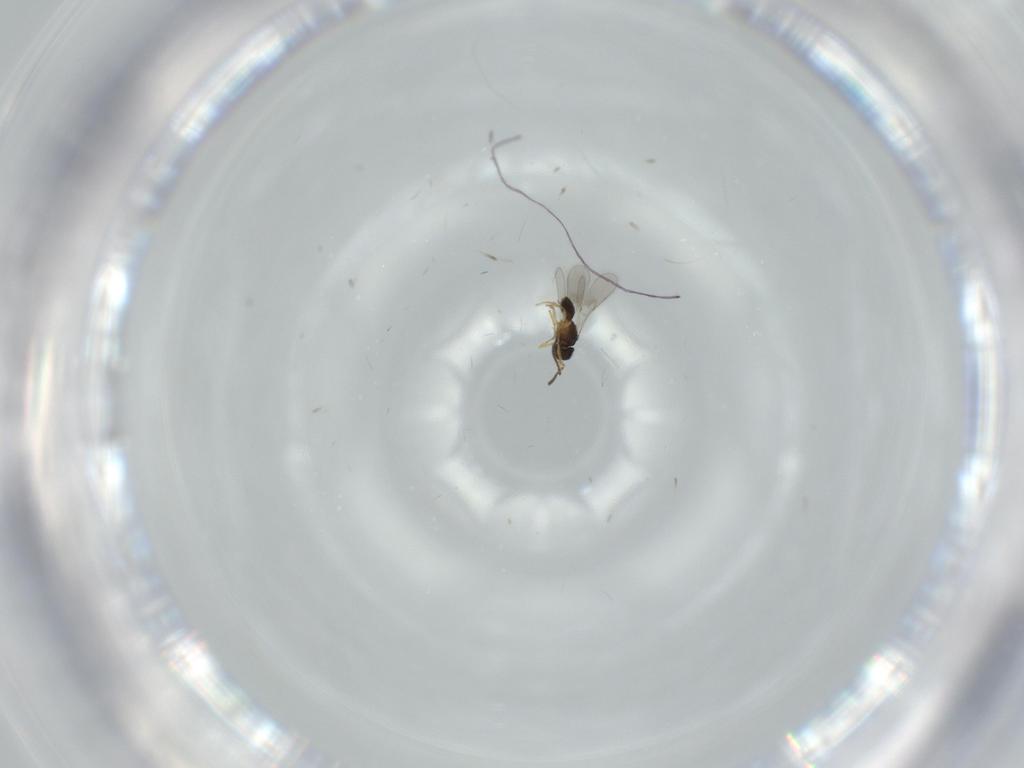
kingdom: Animalia
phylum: Arthropoda
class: Insecta
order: Hymenoptera
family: Scelionidae
